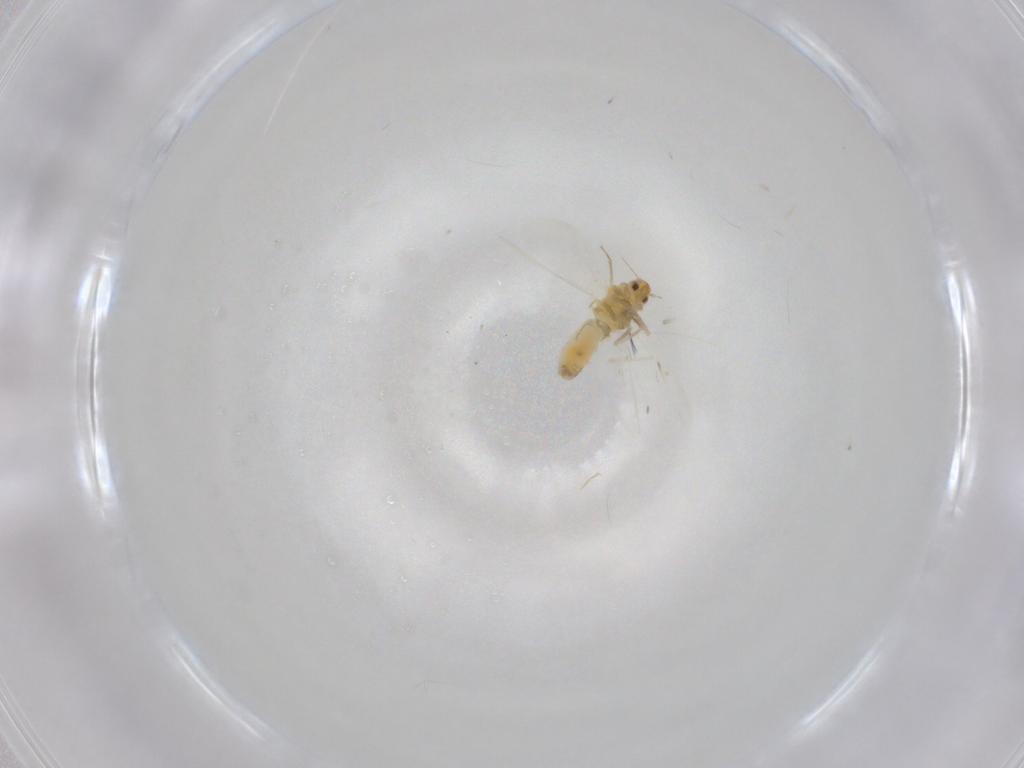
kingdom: Animalia
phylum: Arthropoda
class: Insecta
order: Hemiptera
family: Aleyrodidae
